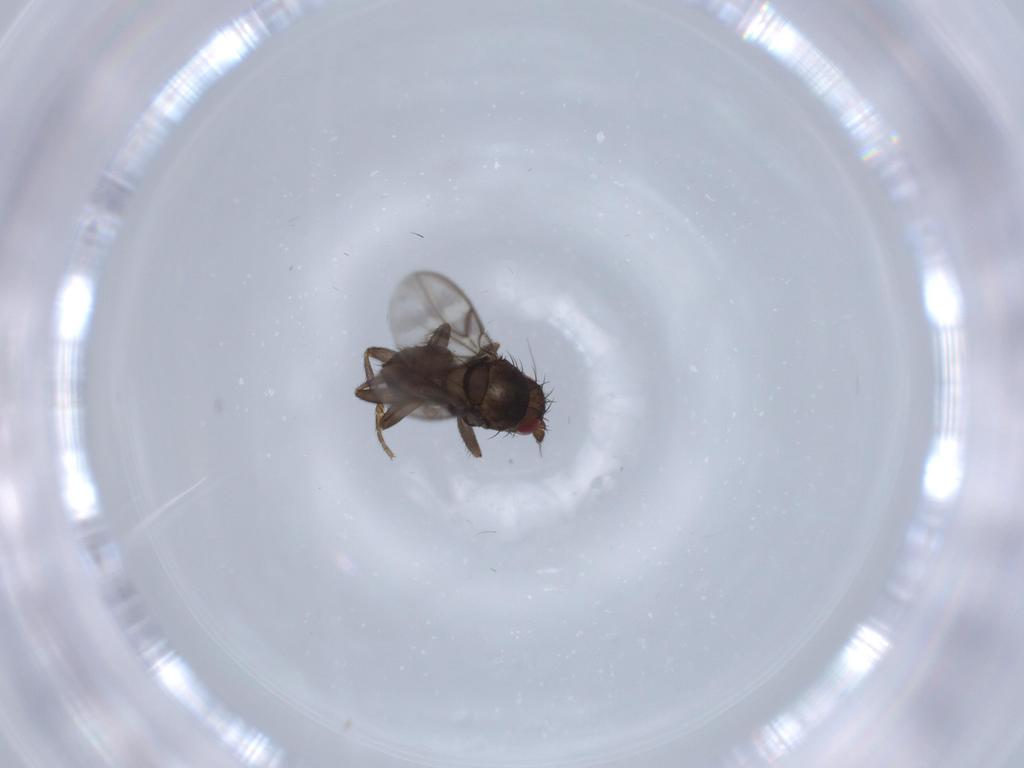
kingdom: Animalia
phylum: Arthropoda
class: Insecta
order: Diptera
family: Sphaeroceridae
